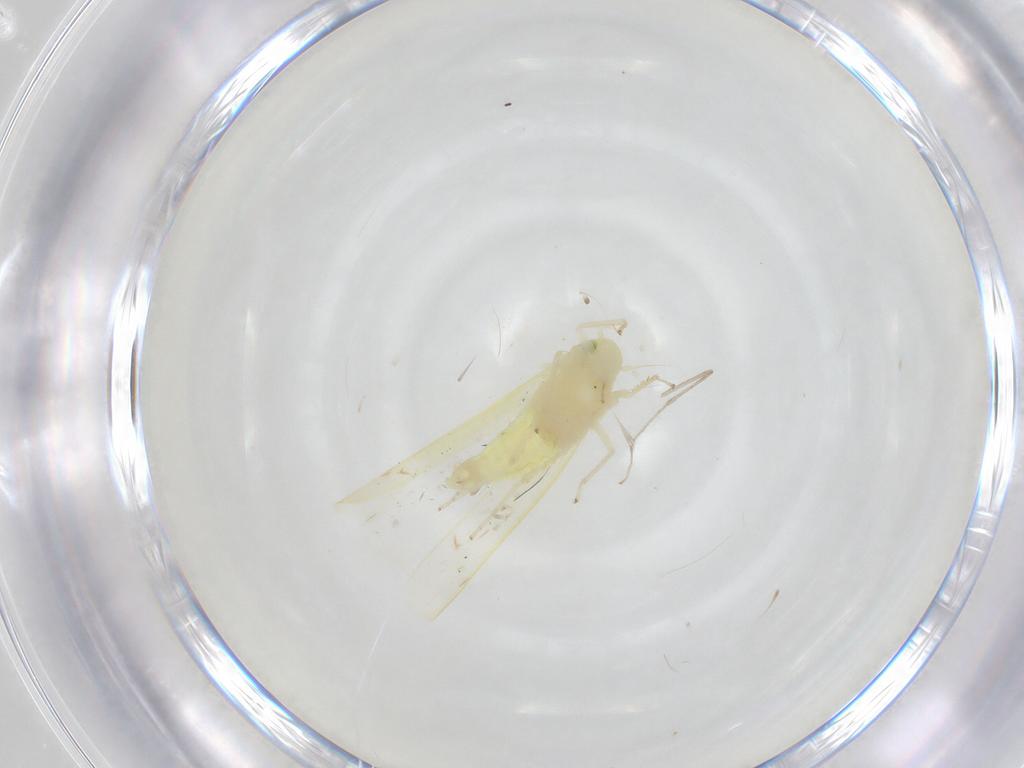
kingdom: Animalia
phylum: Arthropoda
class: Insecta
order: Hemiptera
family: Cicadellidae
